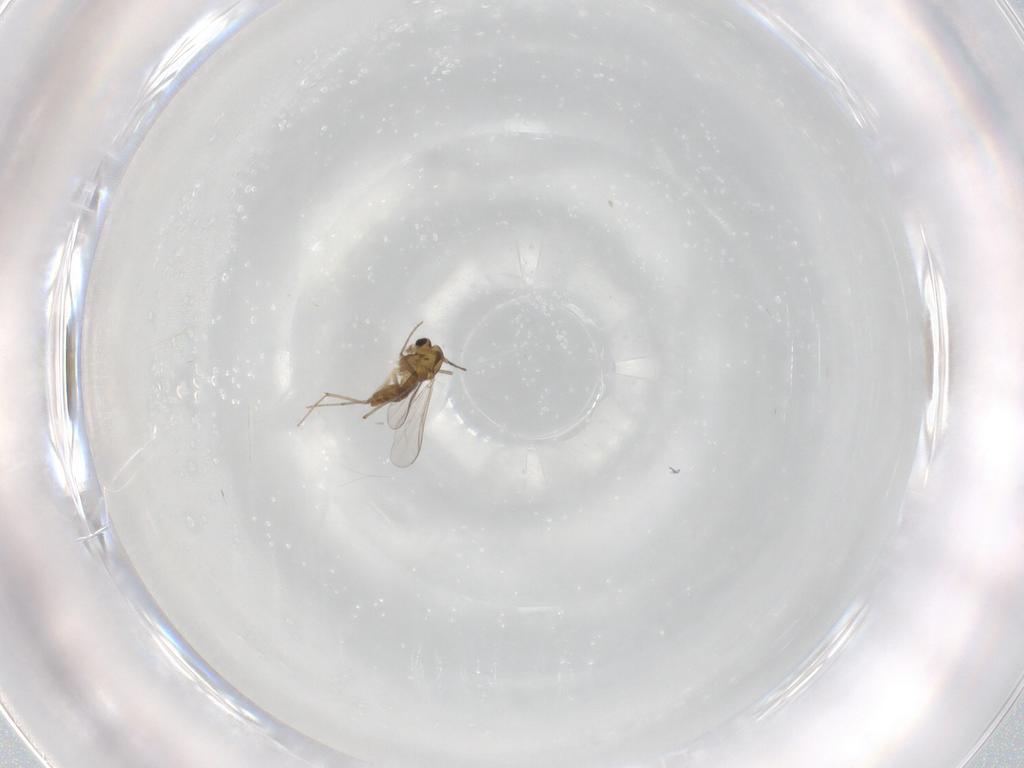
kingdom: Animalia
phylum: Arthropoda
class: Insecta
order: Diptera
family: Chironomidae
